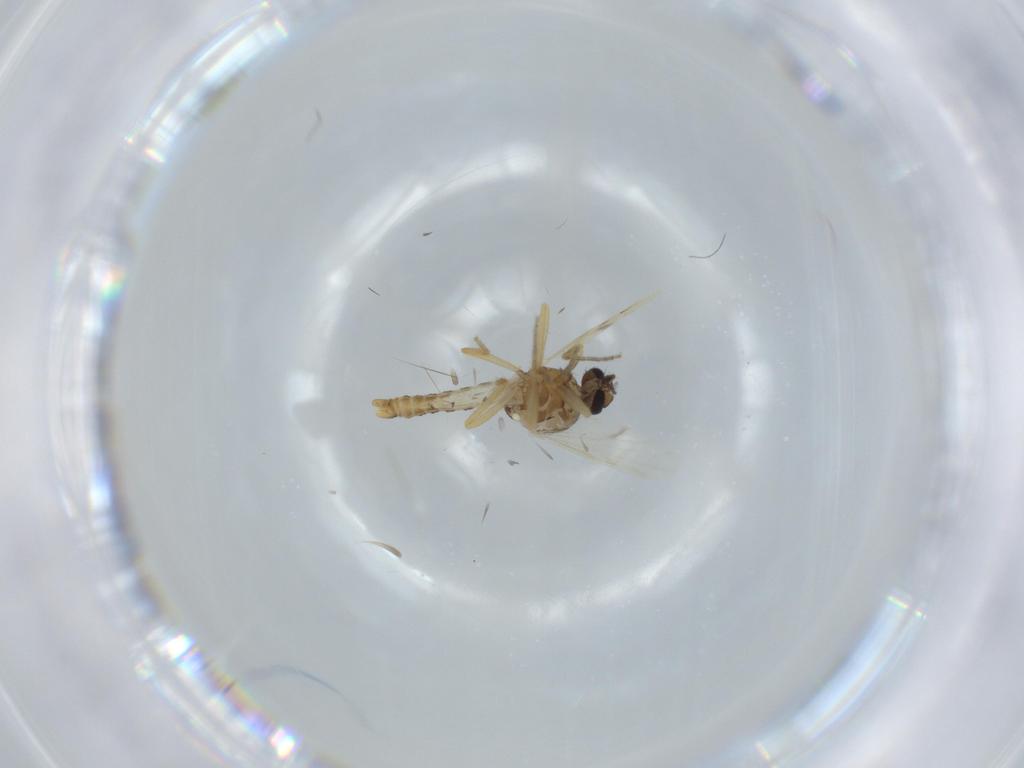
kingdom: Animalia
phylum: Arthropoda
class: Insecta
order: Diptera
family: Ceratopogonidae
